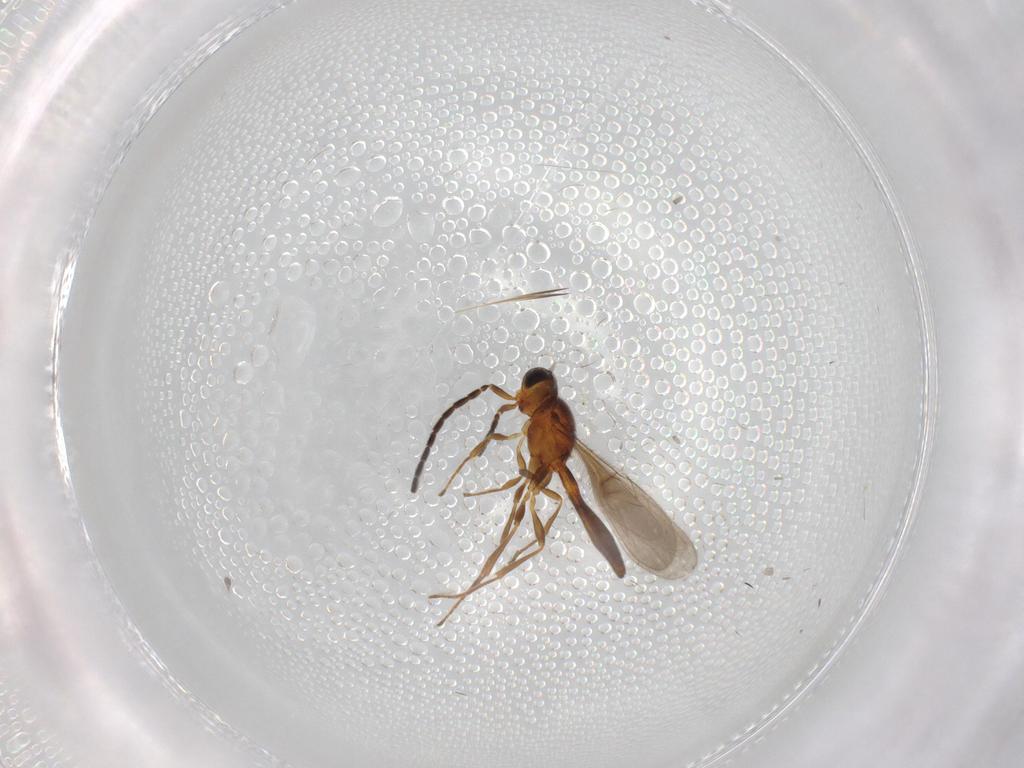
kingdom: Animalia
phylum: Arthropoda
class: Insecta
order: Hymenoptera
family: Scelionidae
